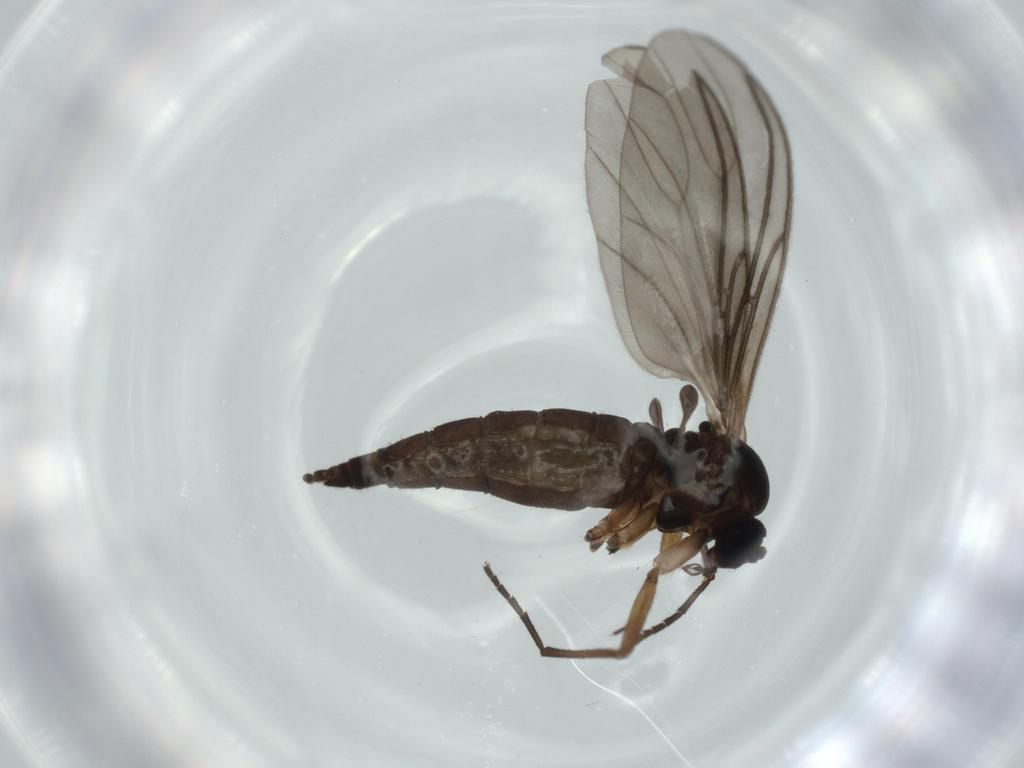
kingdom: Animalia
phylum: Arthropoda
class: Insecta
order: Diptera
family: Sciaridae
